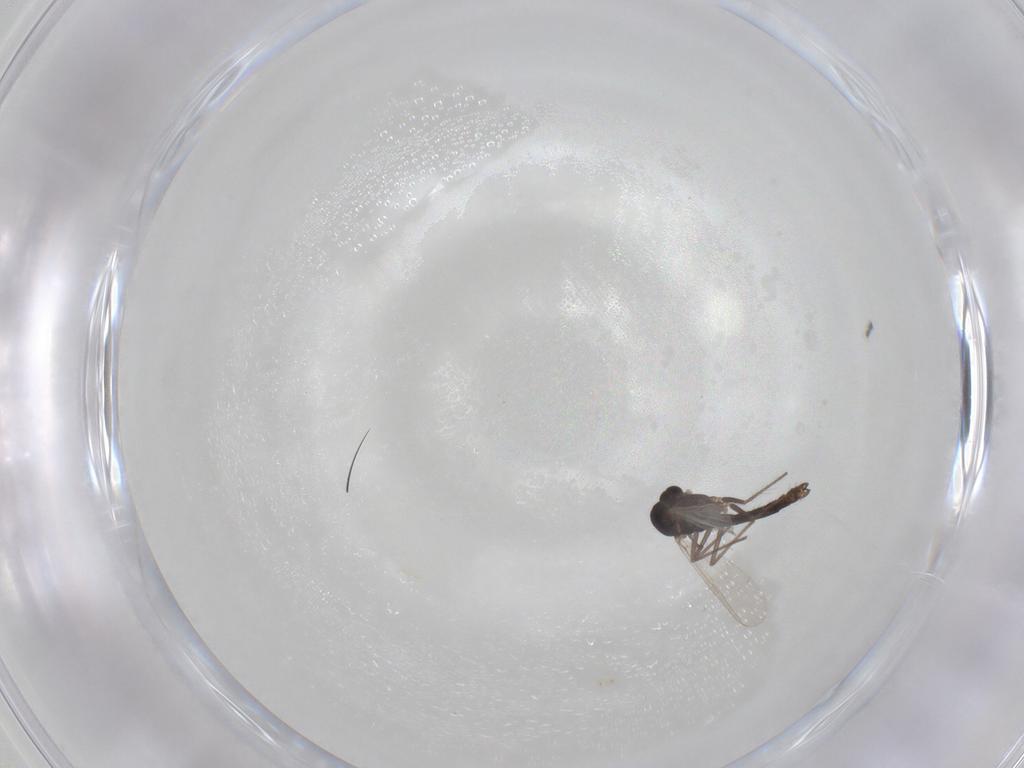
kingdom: Animalia
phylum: Arthropoda
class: Insecta
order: Diptera
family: Chironomidae
